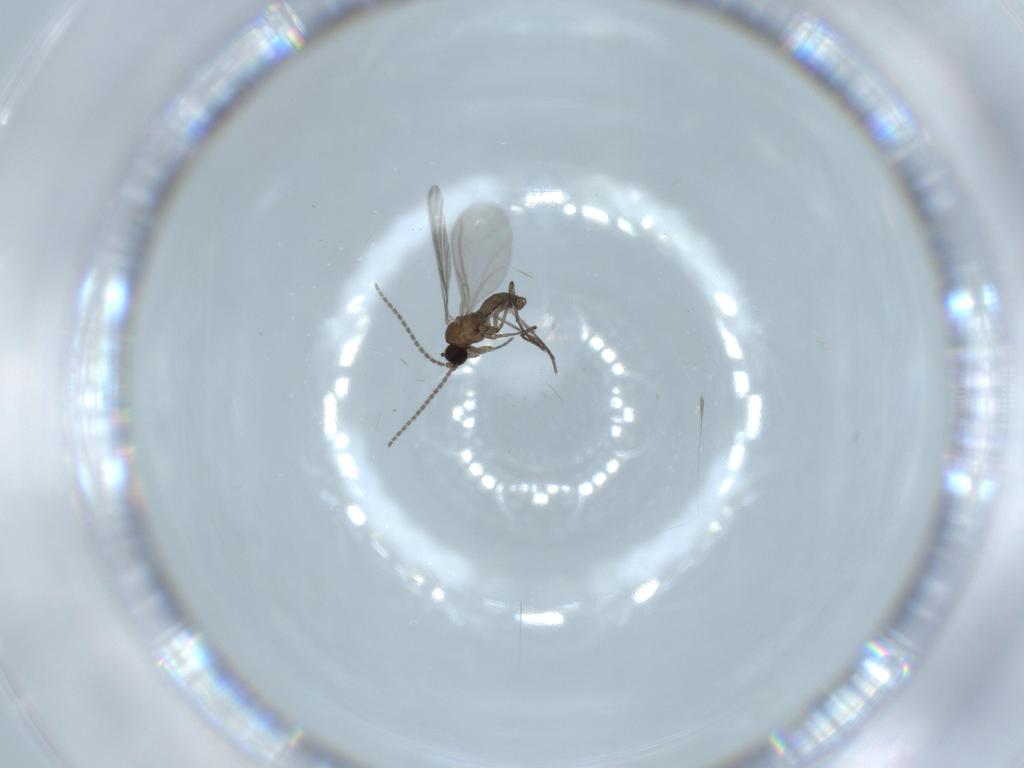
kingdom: Animalia
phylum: Arthropoda
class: Insecta
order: Diptera
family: Sciaridae
